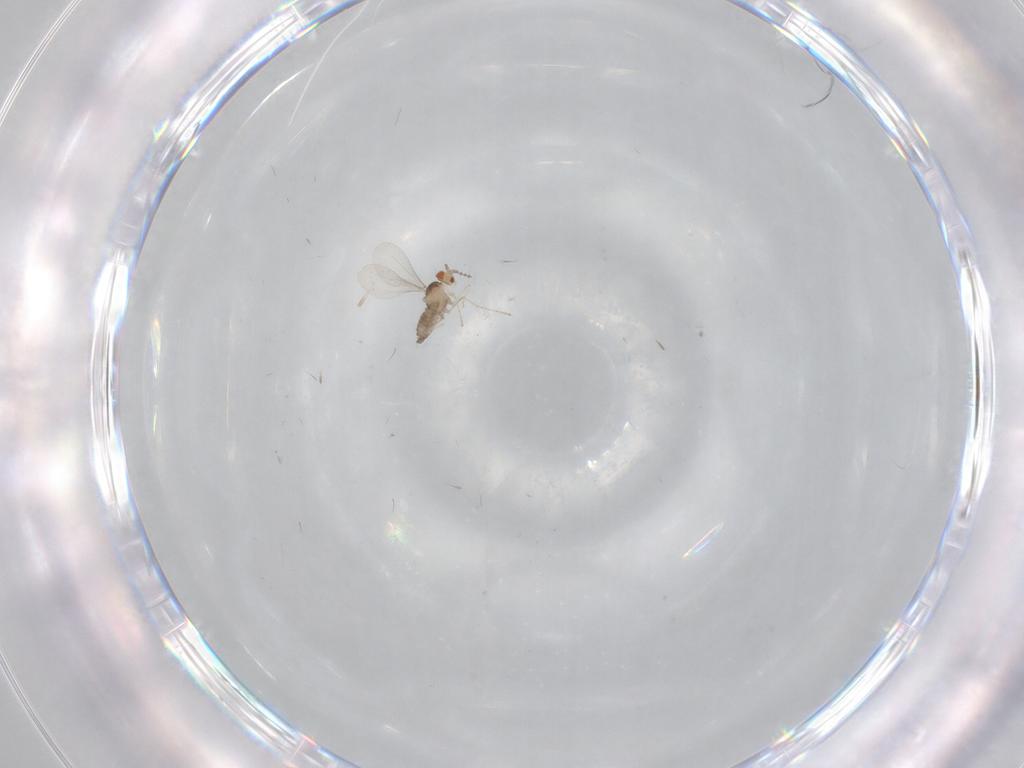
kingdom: Animalia
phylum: Arthropoda
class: Insecta
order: Diptera
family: Cecidomyiidae
